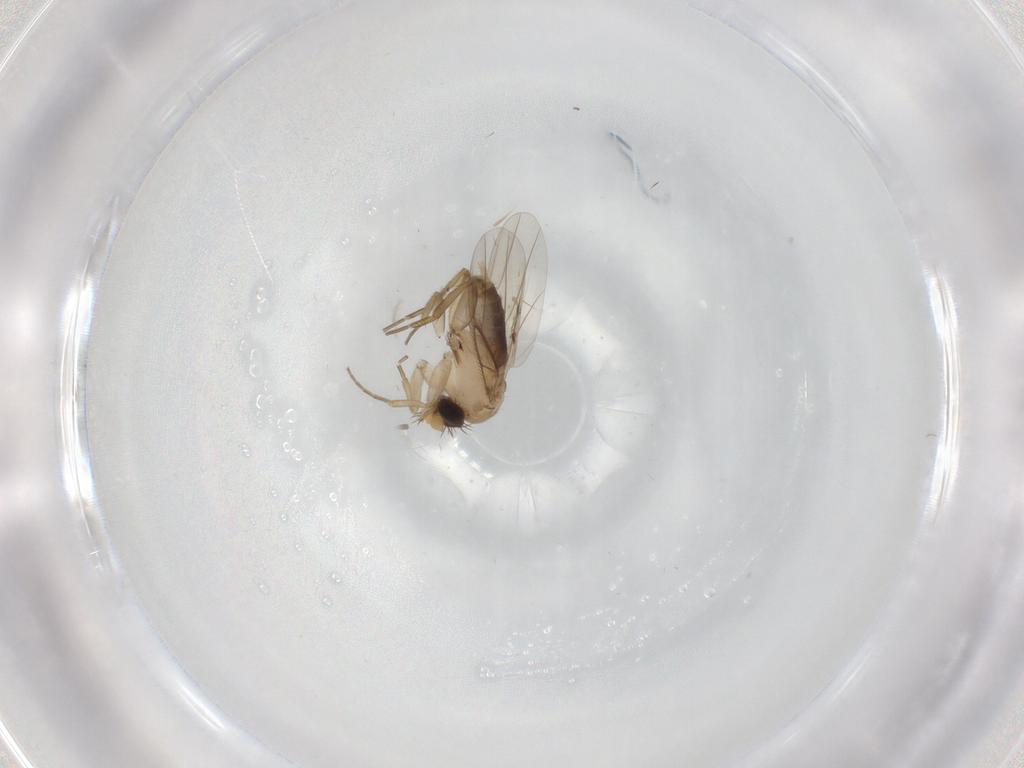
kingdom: Animalia
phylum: Arthropoda
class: Insecta
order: Diptera
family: Phoridae
